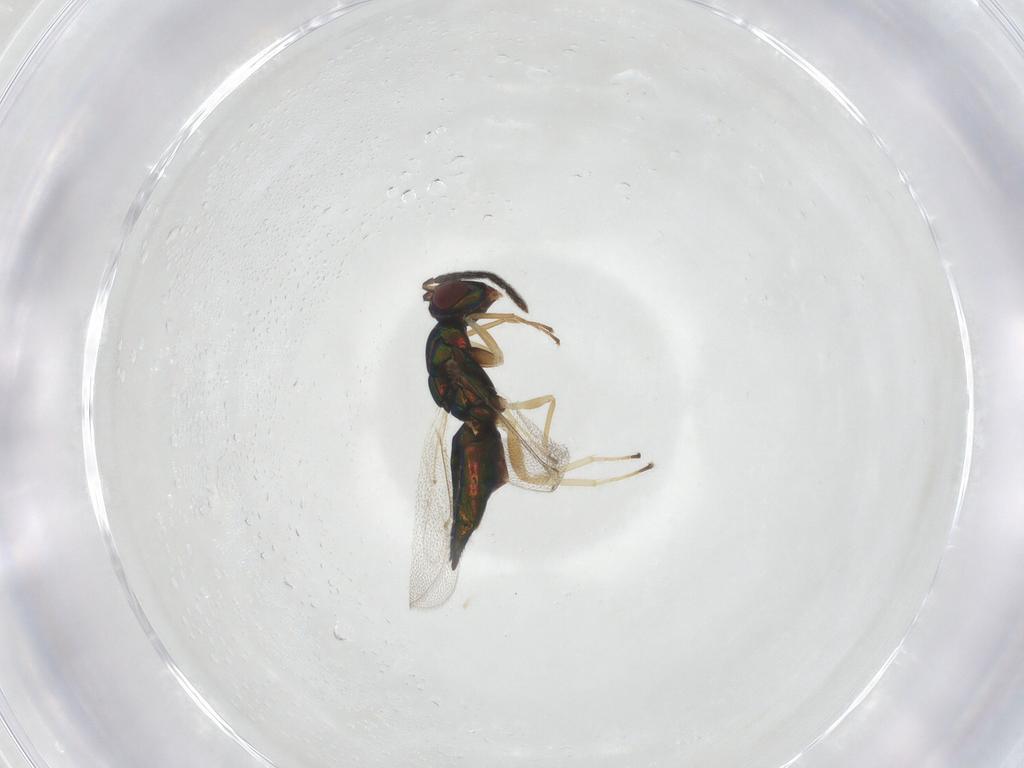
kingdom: Animalia
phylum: Arthropoda
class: Insecta
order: Hymenoptera
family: Eulophidae
